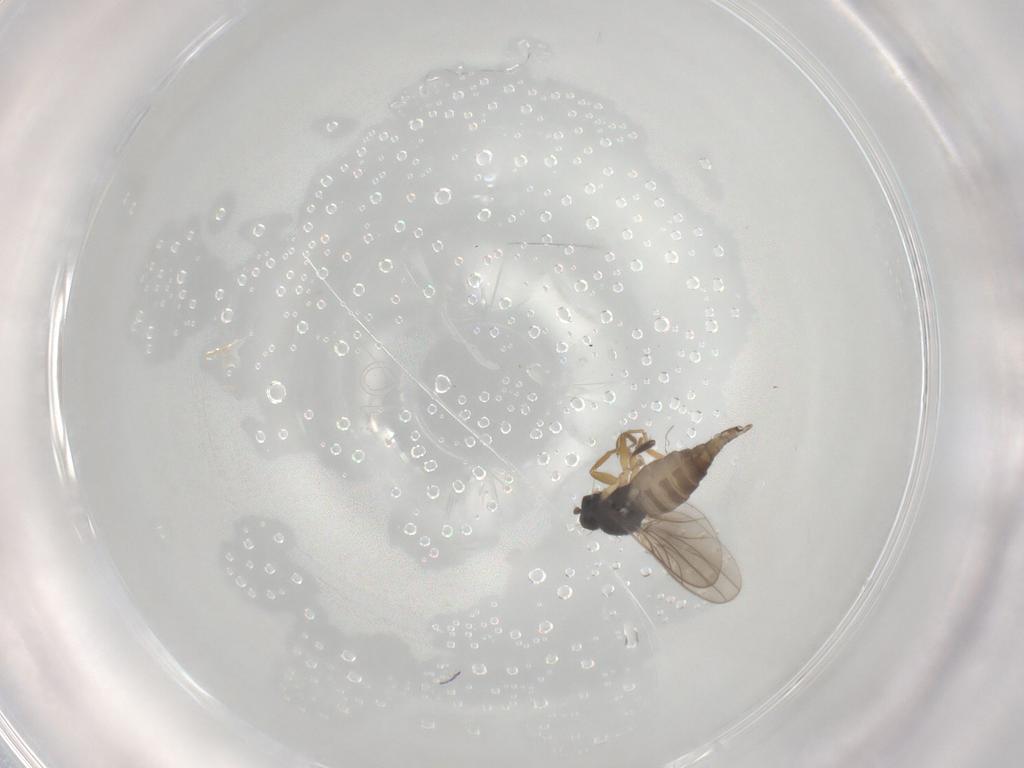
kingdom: Animalia
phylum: Arthropoda
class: Insecta
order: Diptera
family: Hybotidae
